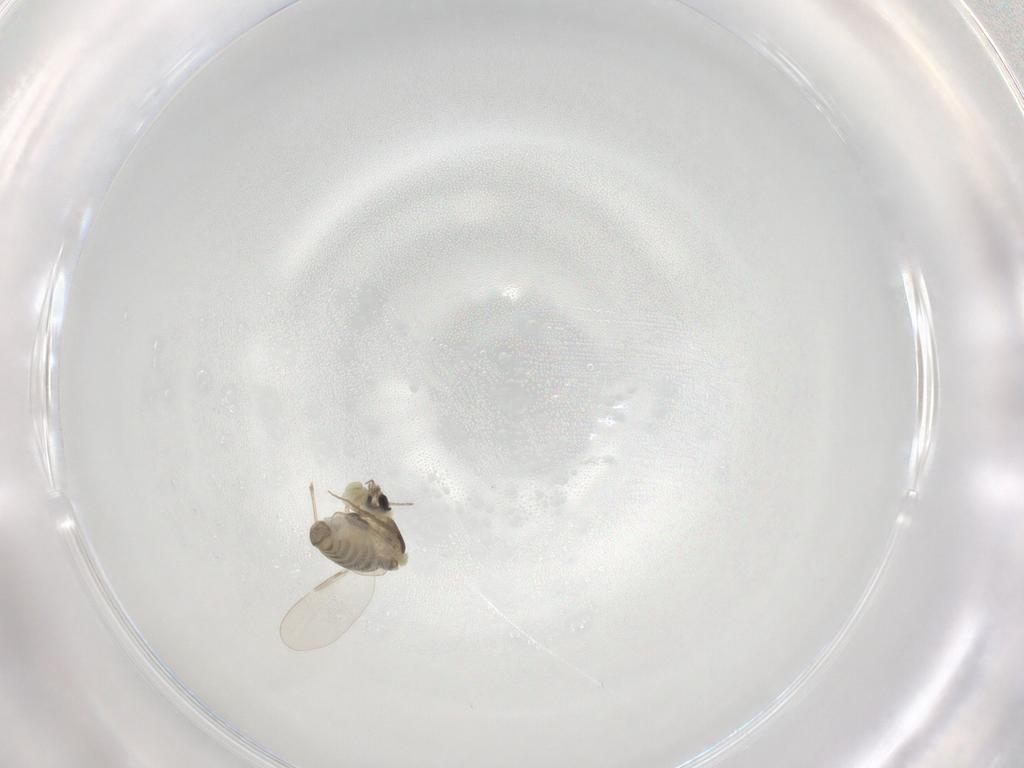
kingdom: Animalia
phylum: Arthropoda
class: Insecta
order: Diptera
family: Chironomidae
